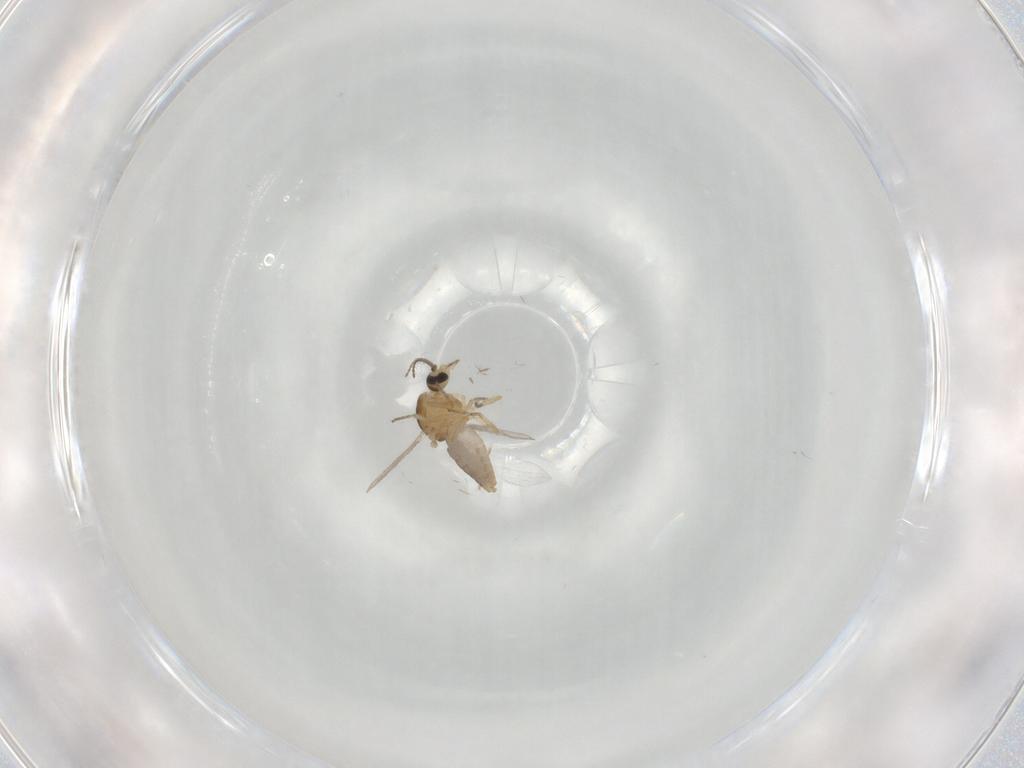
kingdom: Animalia
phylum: Arthropoda
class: Insecta
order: Diptera
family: Ceratopogonidae
